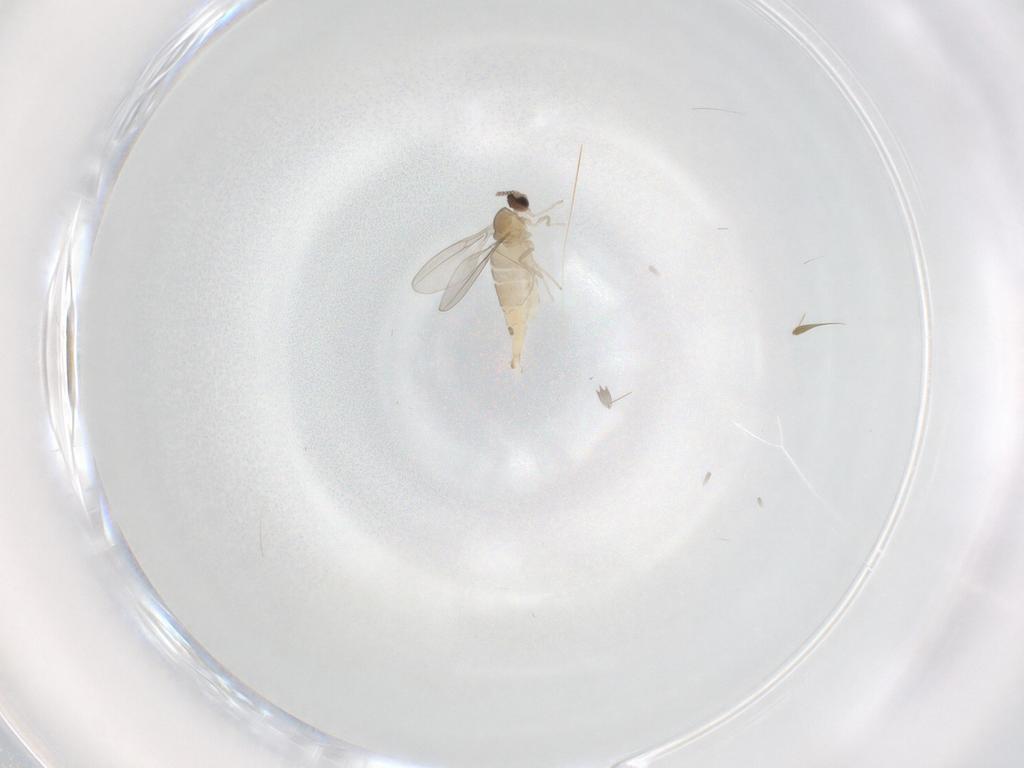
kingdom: Animalia
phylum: Arthropoda
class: Insecta
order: Diptera
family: Cecidomyiidae
